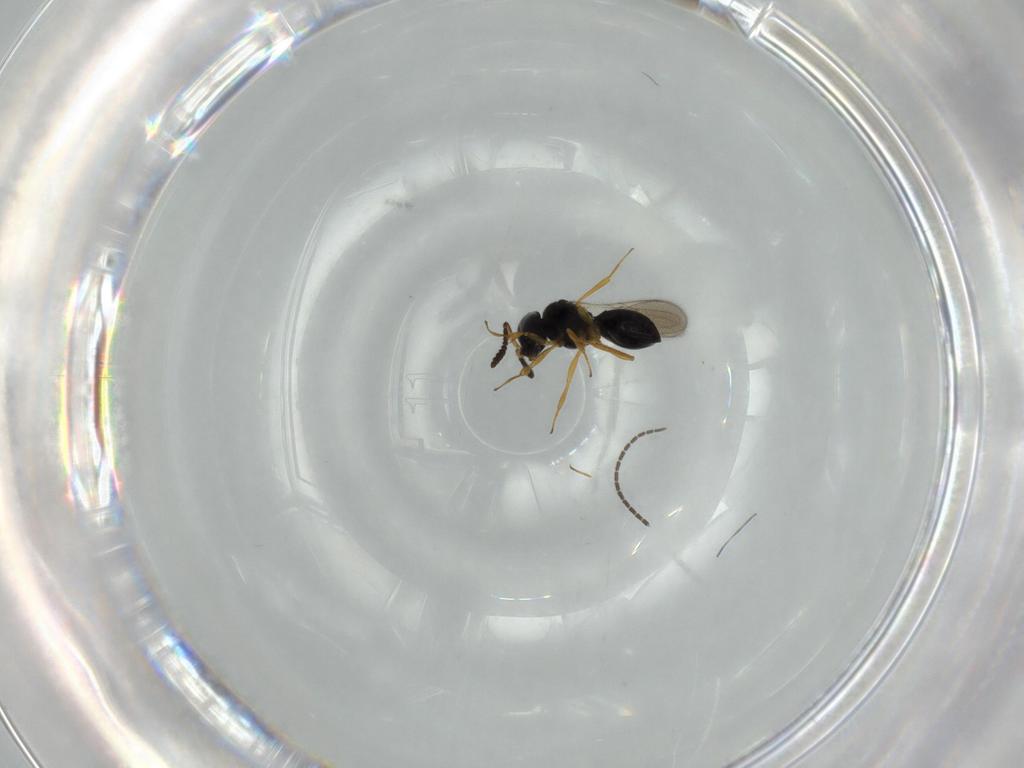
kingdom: Animalia
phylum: Arthropoda
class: Insecta
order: Hymenoptera
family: Scelionidae
